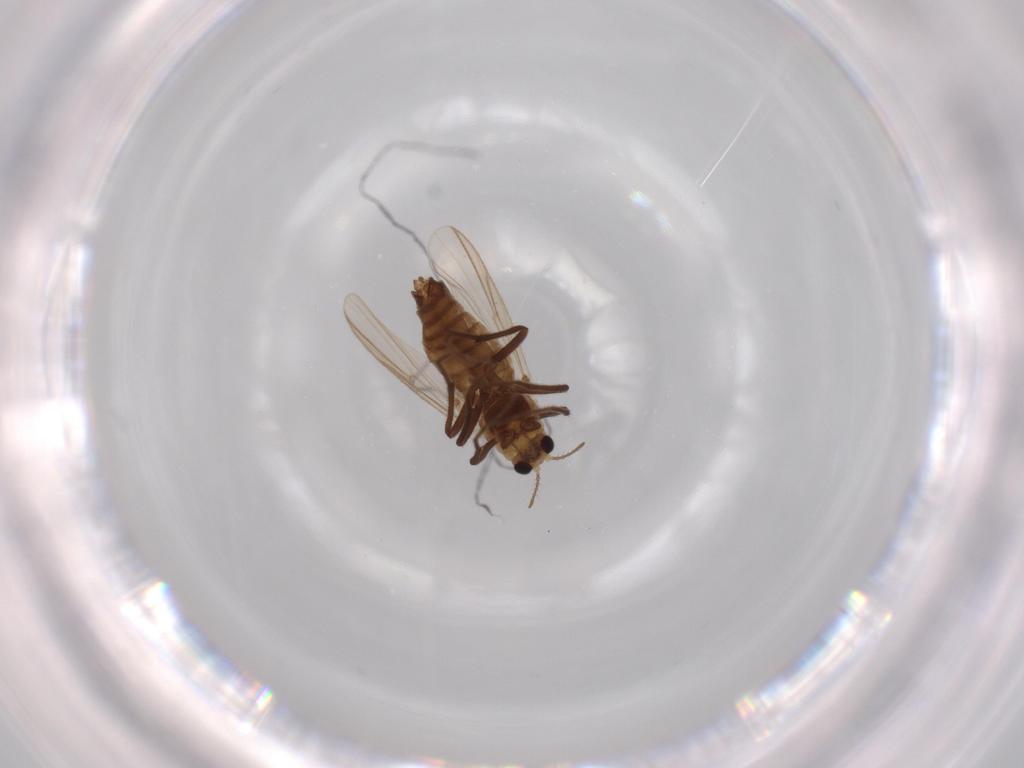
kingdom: Animalia
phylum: Arthropoda
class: Insecta
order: Diptera
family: Chironomidae
